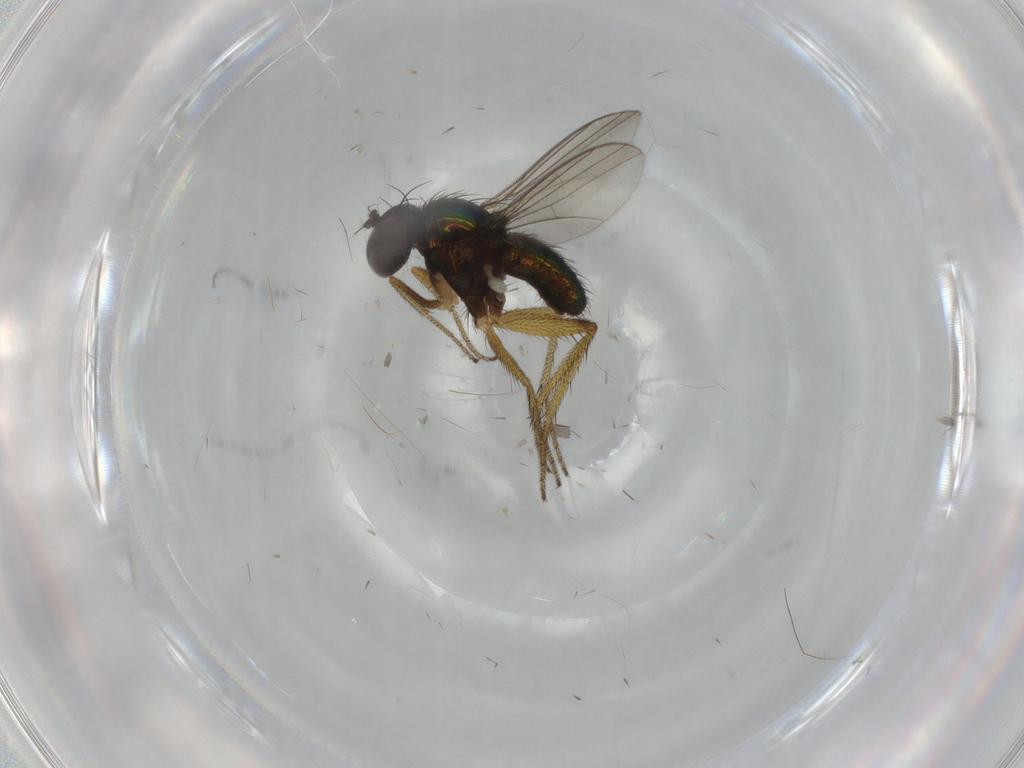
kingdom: Animalia
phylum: Arthropoda
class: Insecta
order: Diptera
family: Dolichopodidae
